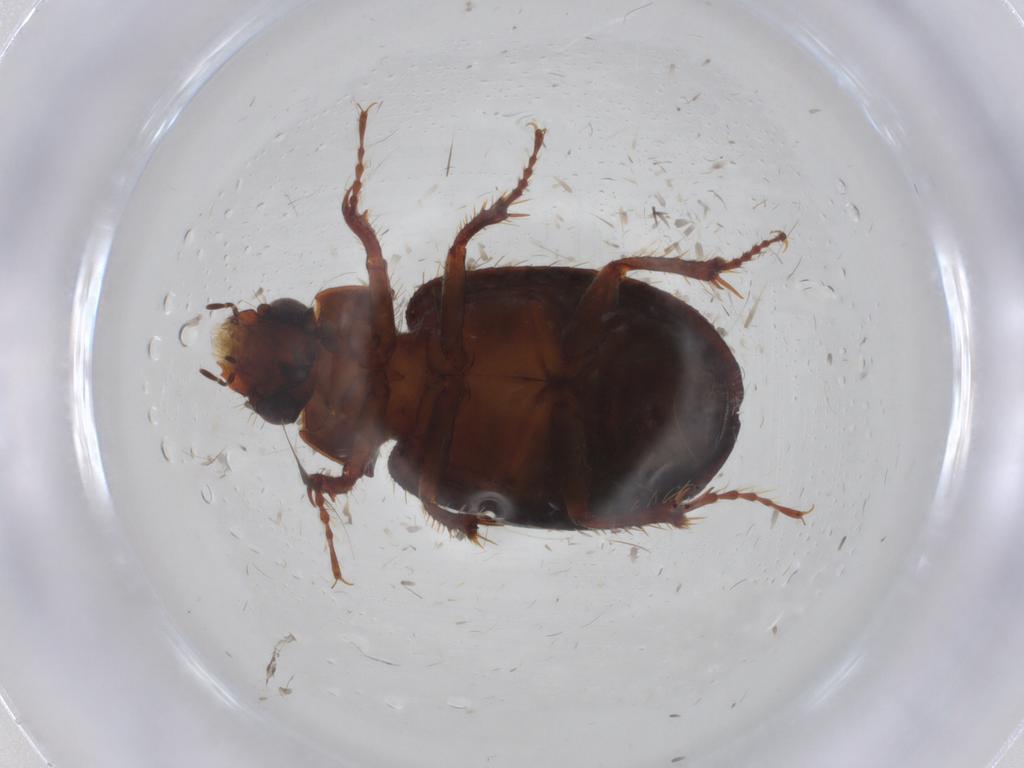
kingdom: Animalia
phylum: Arthropoda
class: Insecta
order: Coleoptera
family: Hybosoridae
